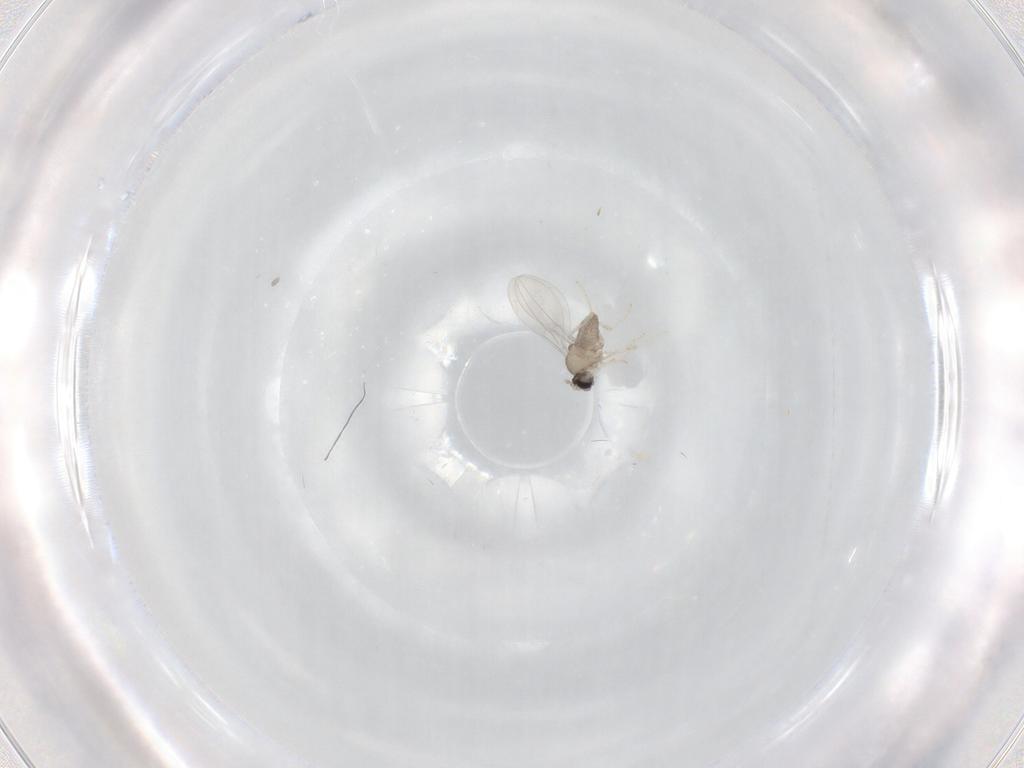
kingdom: Animalia
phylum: Arthropoda
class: Insecta
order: Diptera
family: Cecidomyiidae
